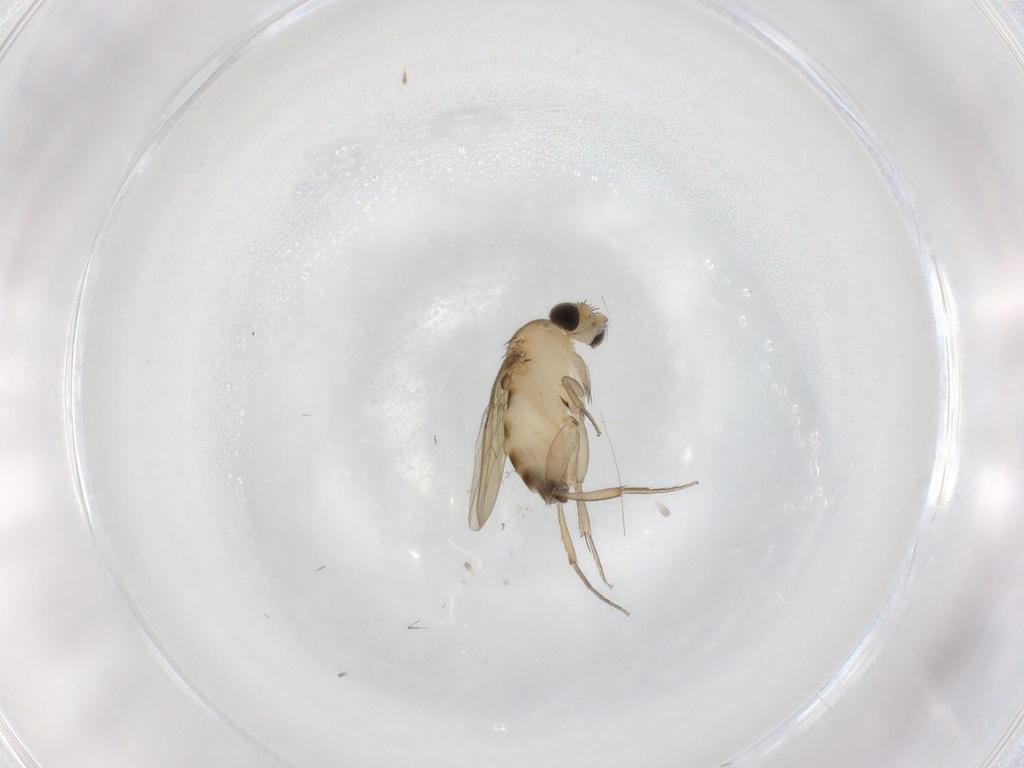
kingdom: Animalia
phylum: Arthropoda
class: Insecta
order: Diptera
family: Phoridae
